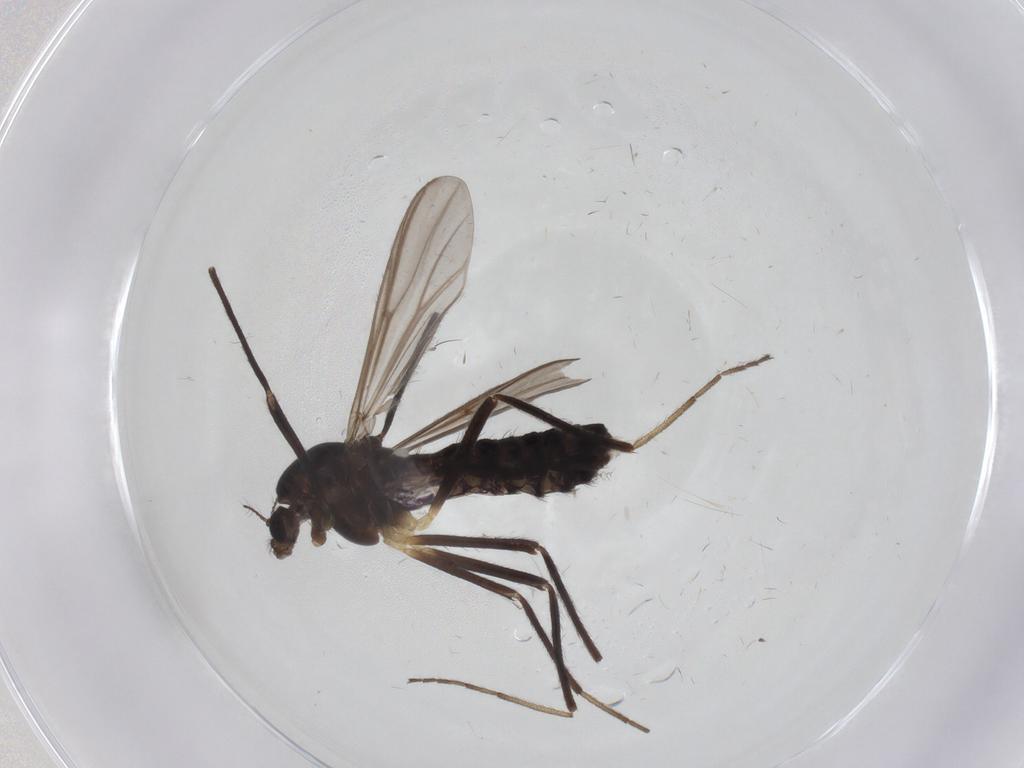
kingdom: Animalia
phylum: Arthropoda
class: Insecta
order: Diptera
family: Chironomidae
